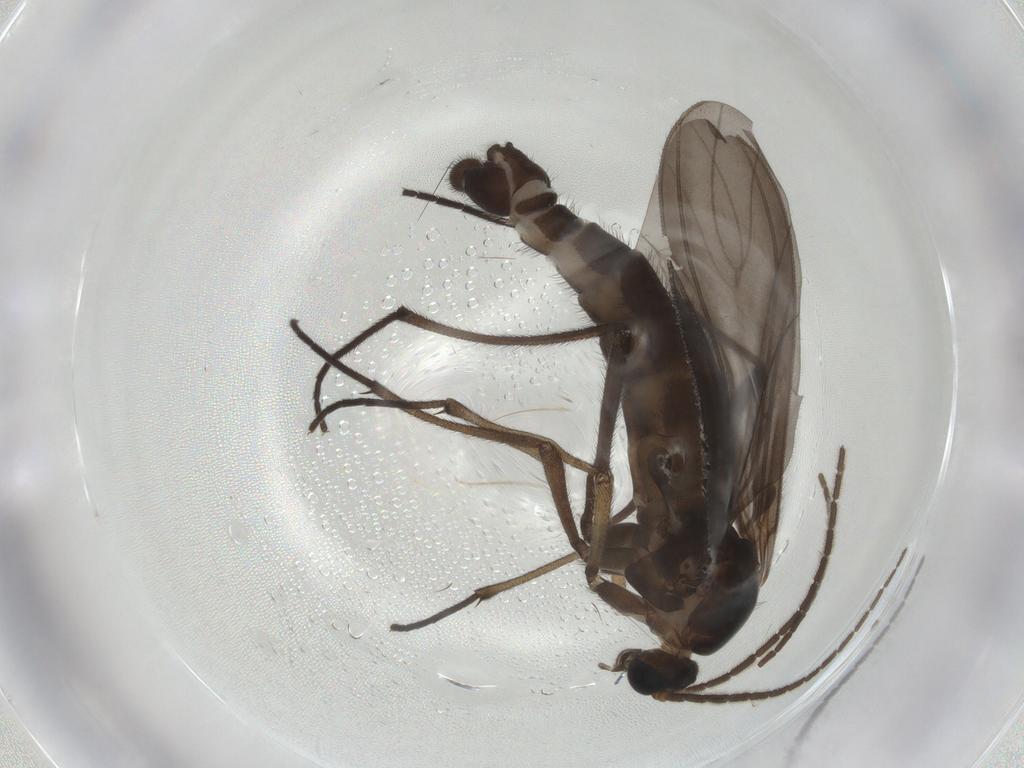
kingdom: Animalia
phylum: Arthropoda
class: Insecta
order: Diptera
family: Sciaridae
